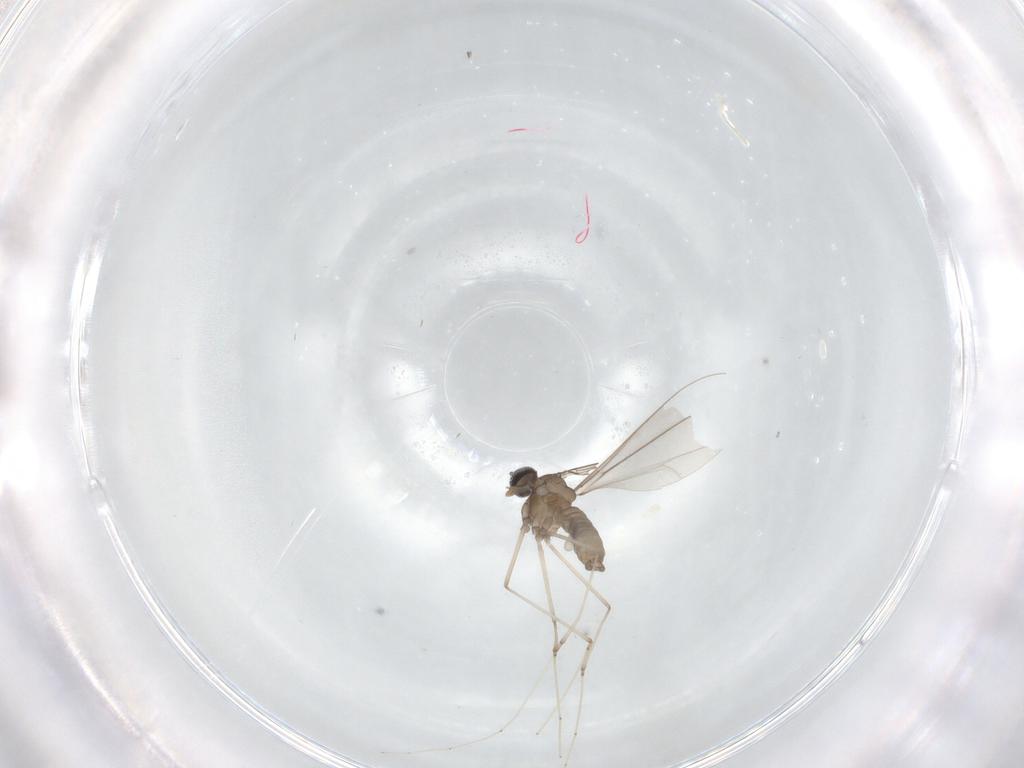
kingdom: Animalia
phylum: Arthropoda
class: Insecta
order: Diptera
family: Cecidomyiidae
